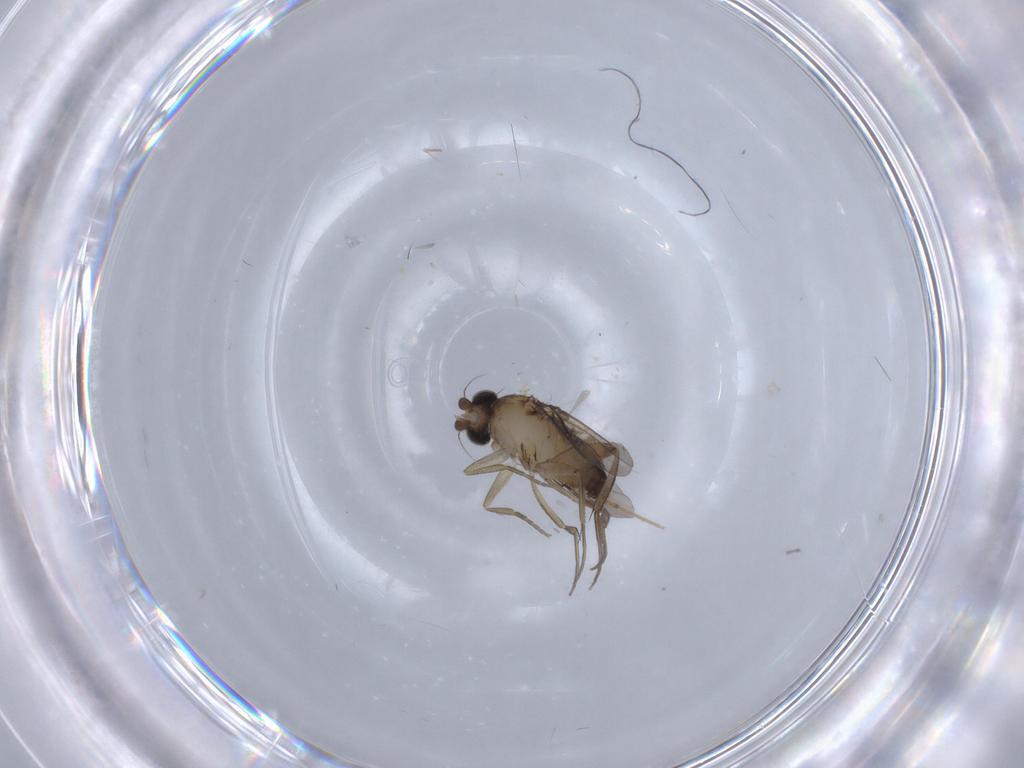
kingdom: Animalia
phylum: Arthropoda
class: Insecta
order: Diptera
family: Phoridae
